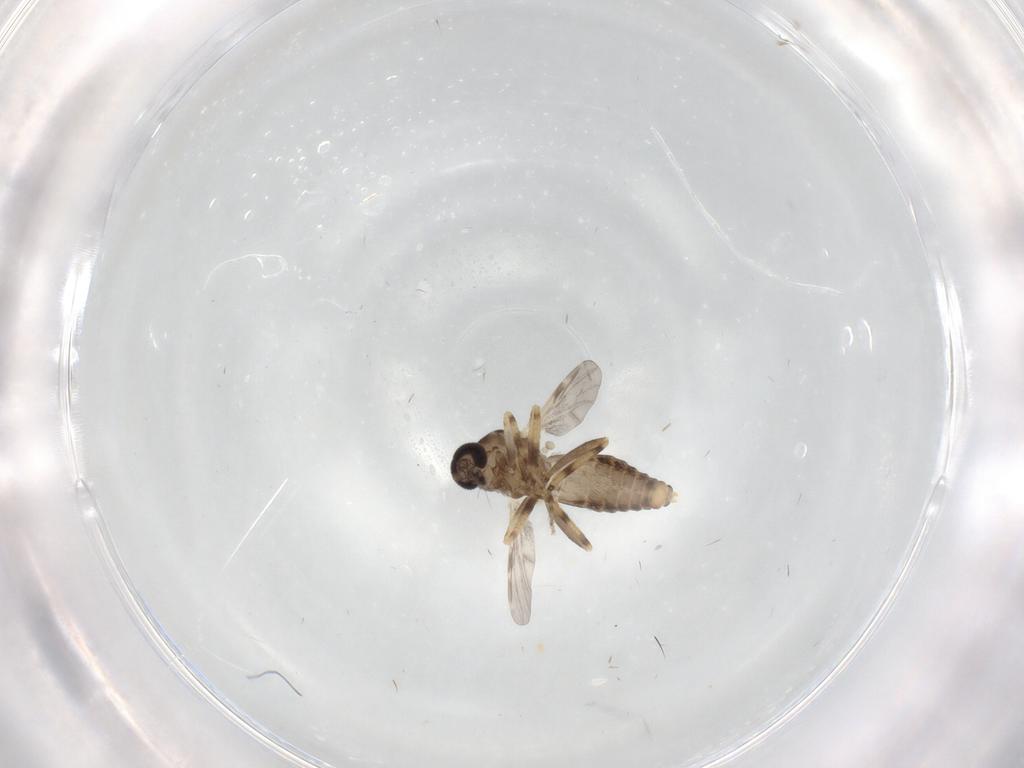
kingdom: Animalia
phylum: Arthropoda
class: Insecta
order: Diptera
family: Ceratopogonidae
